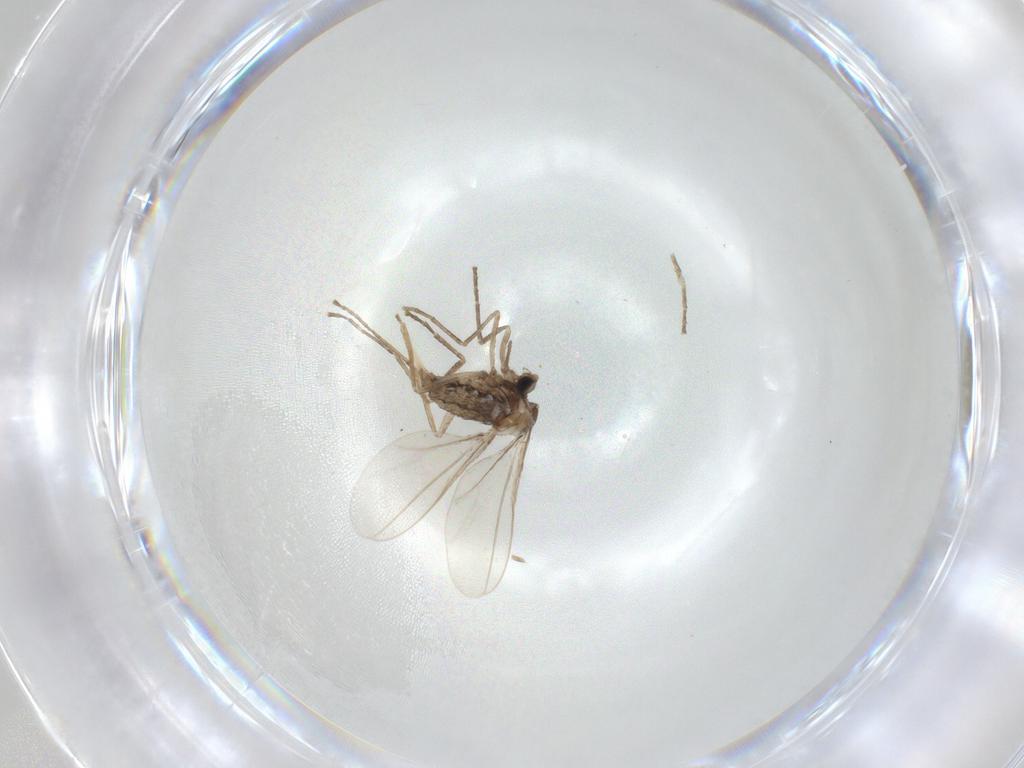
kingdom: Animalia
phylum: Arthropoda
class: Insecta
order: Diptera
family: Cecidomyiidae
